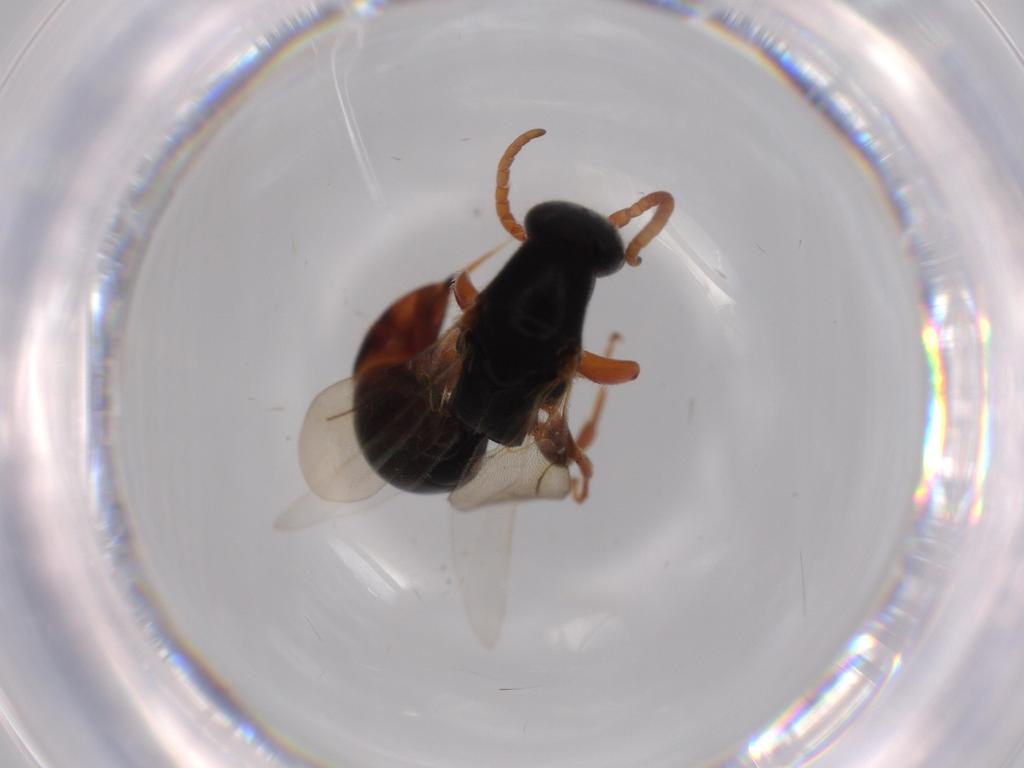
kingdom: Animalia
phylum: Arthropoda
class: Insecta
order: Hymenoptera
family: Bethylidae
